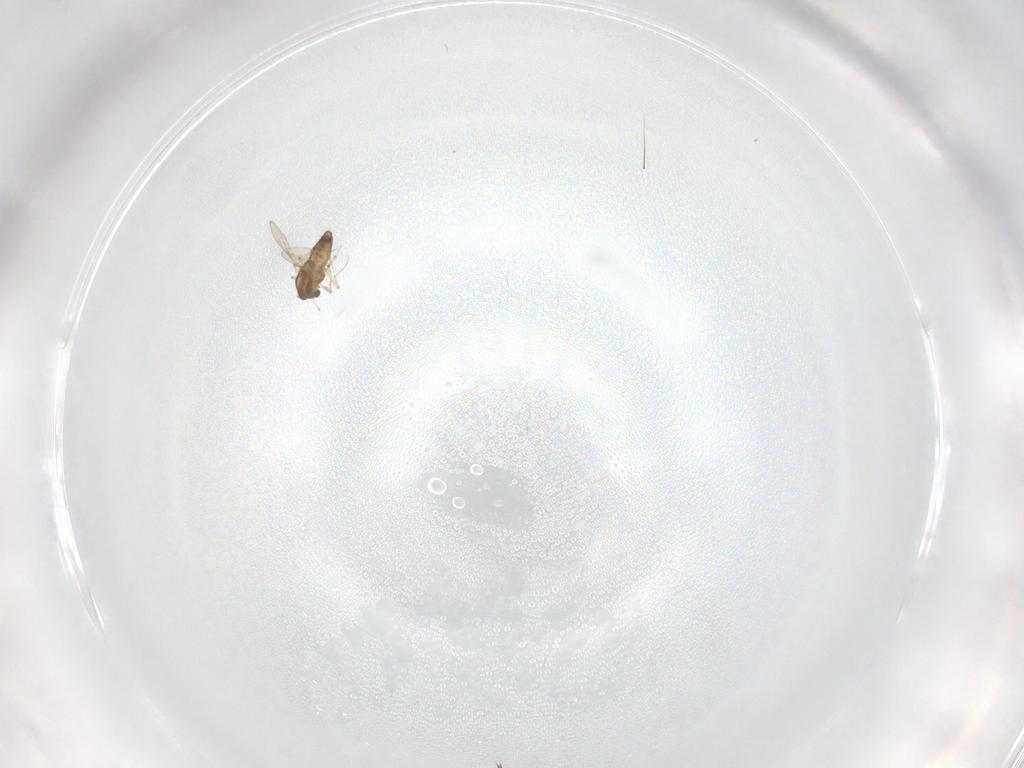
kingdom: Animalia
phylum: Arthropoda
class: Insecta
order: Diptera
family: Chironomidae
